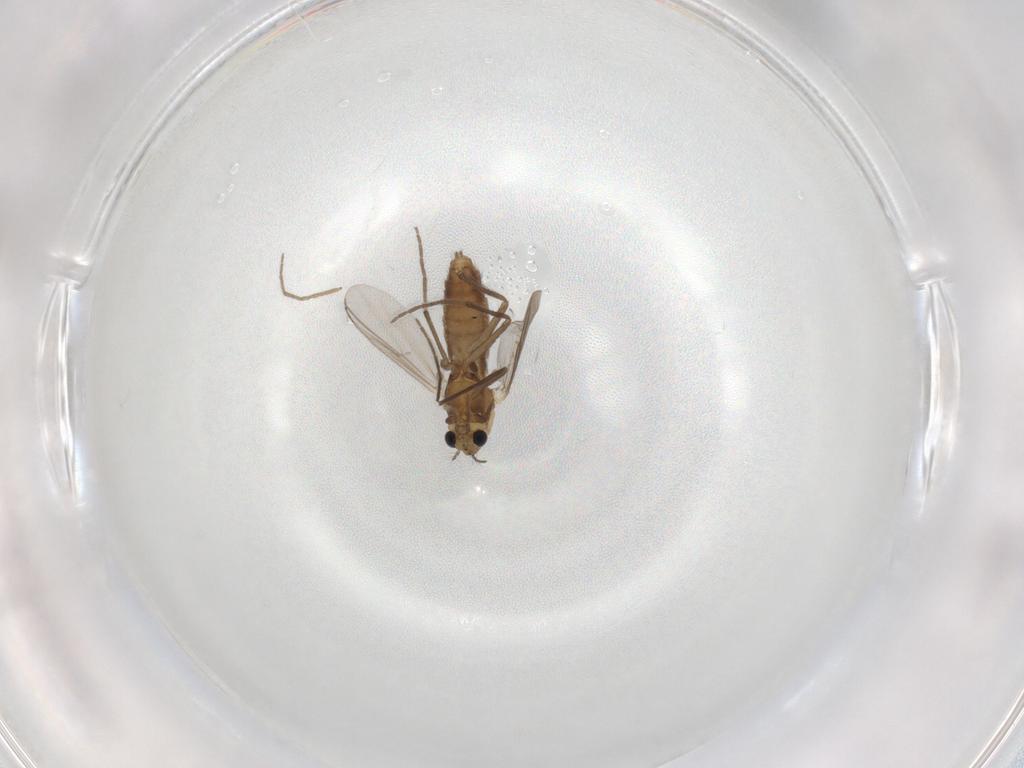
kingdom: Animalia
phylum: Arthropoda
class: Insecta
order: Diptera
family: Chironomidae
